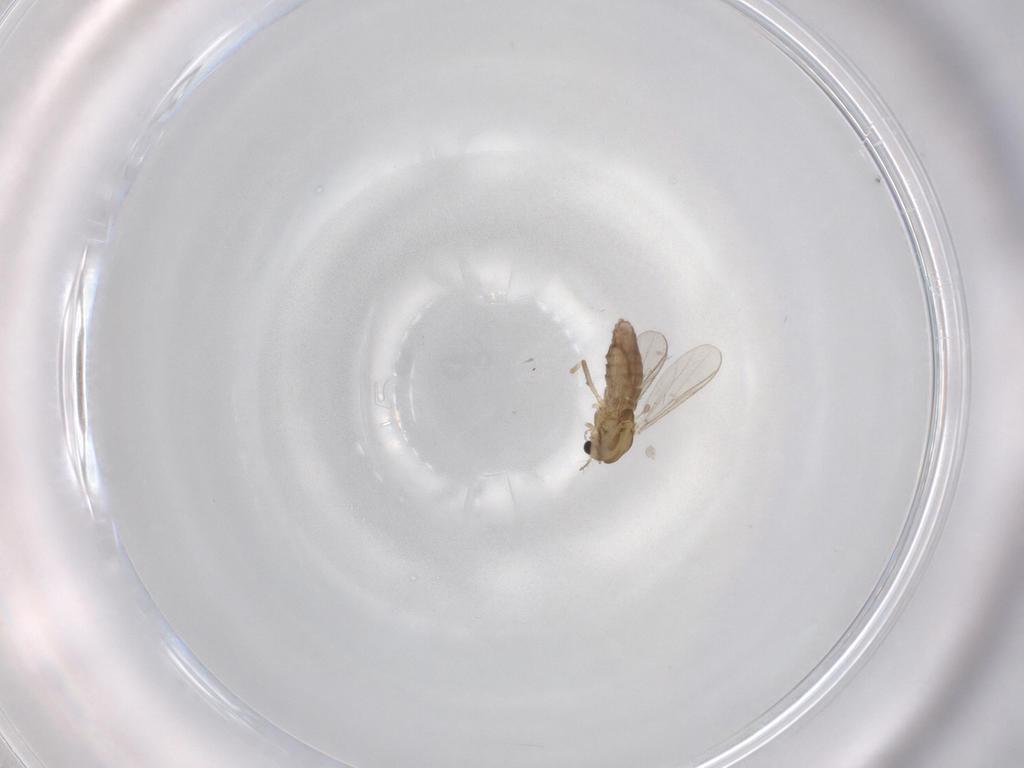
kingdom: Animalia
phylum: Arthropoda
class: Insecta
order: Diptera
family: Chironomidae
